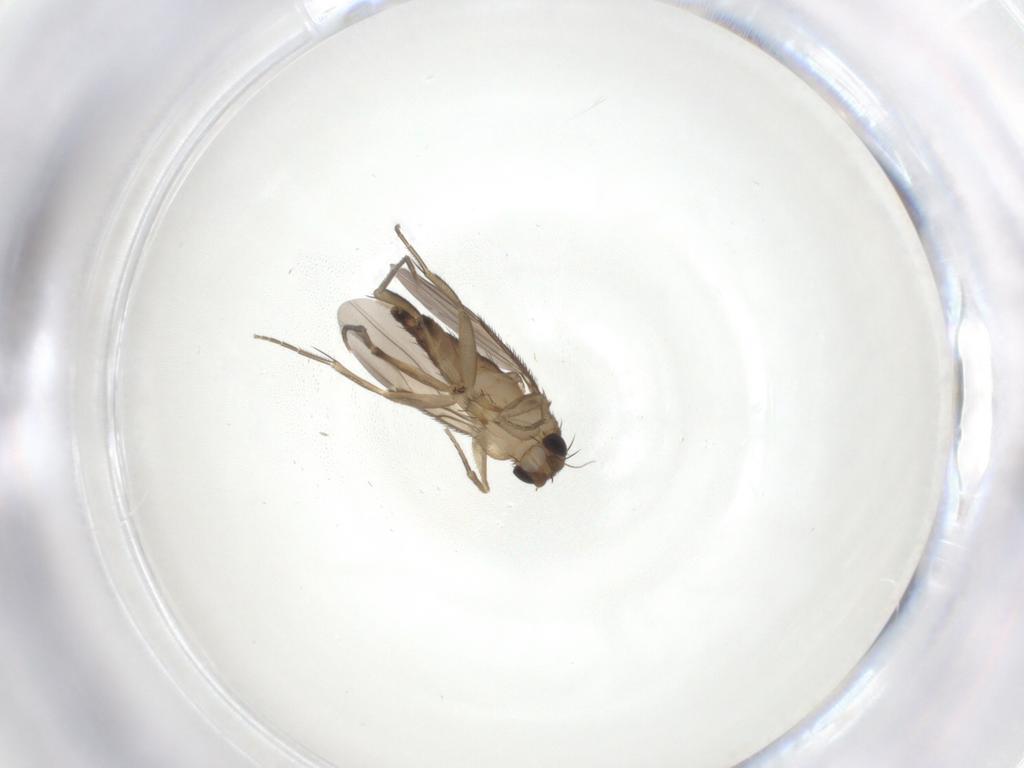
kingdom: Animalia
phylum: Arthropoda
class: Insecta
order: Diptera
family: Phoridae
